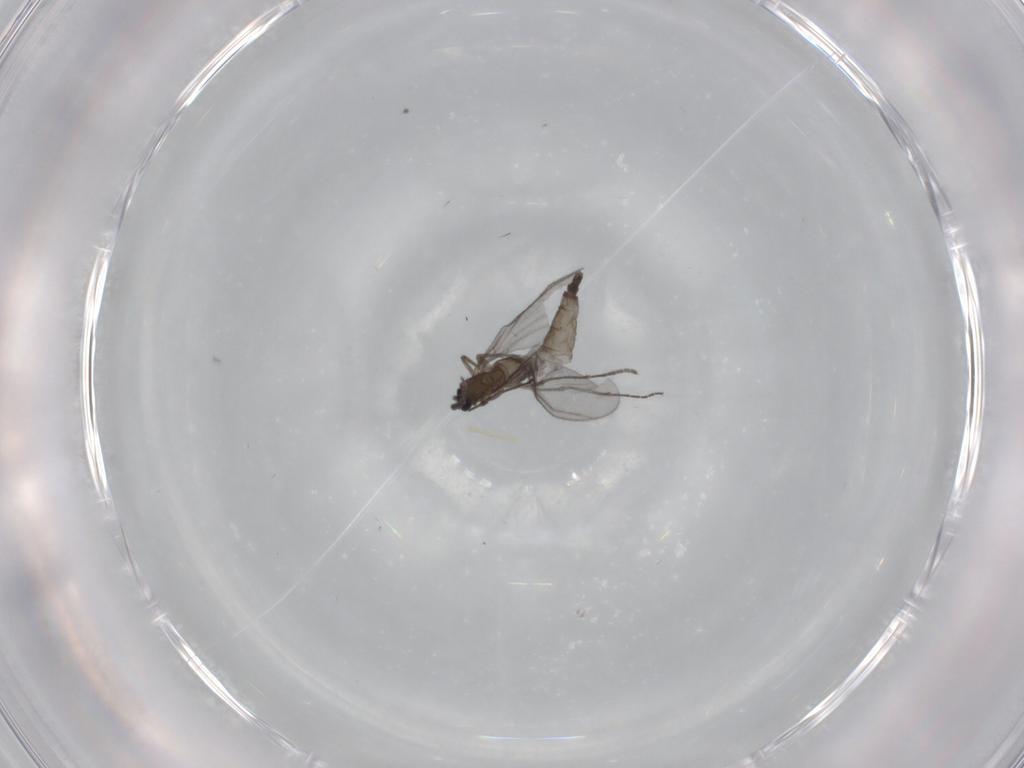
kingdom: Animalia
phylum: Arthropoda
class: Insecta
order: Diptera
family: Sciaridae
